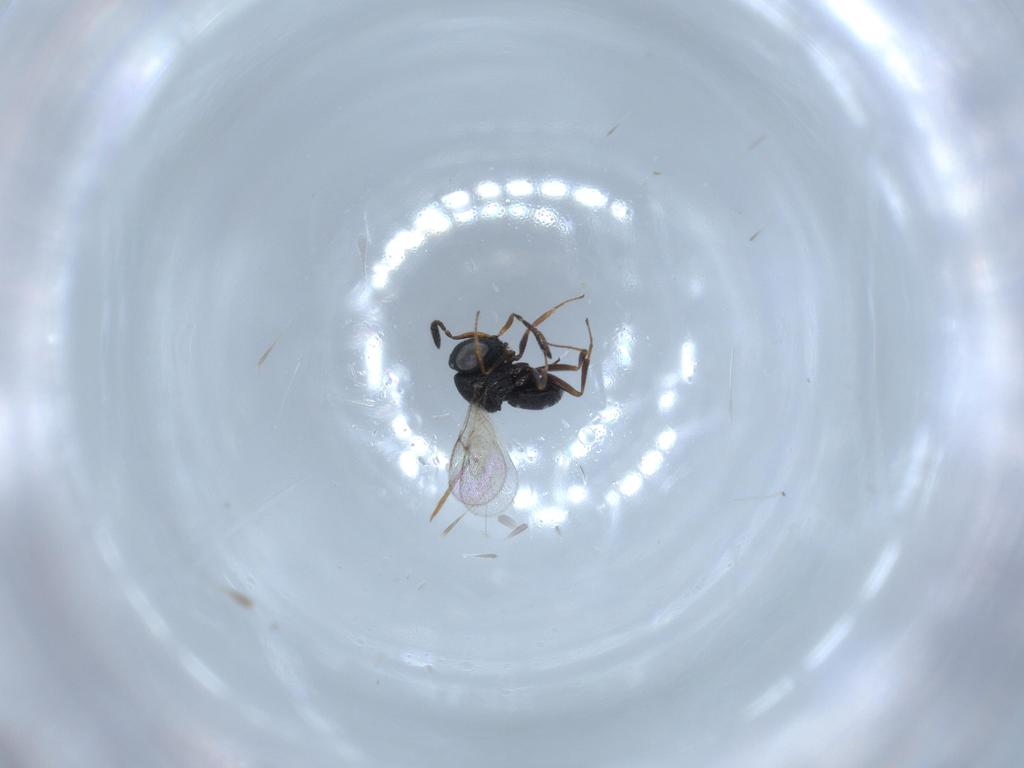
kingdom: Animalia
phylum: Arthropoda
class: Insecta
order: Hymenoptera
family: Scelionidae
